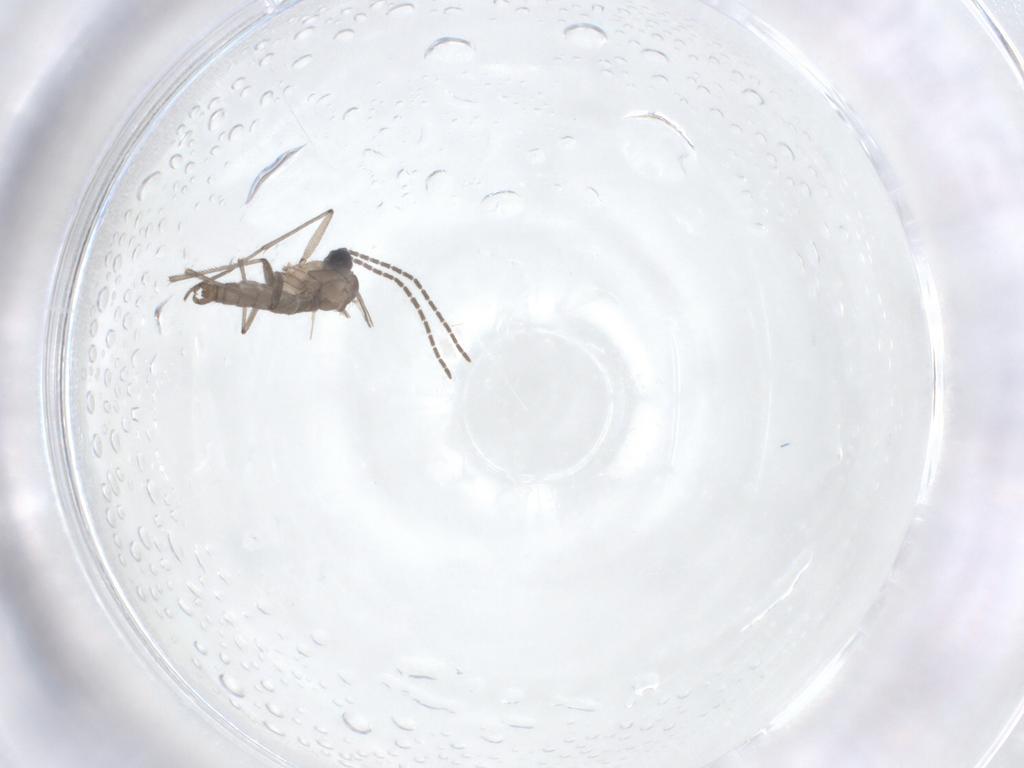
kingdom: Animalia
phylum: Arthropoda
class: Insecta
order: Diptera
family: Sciaridae
